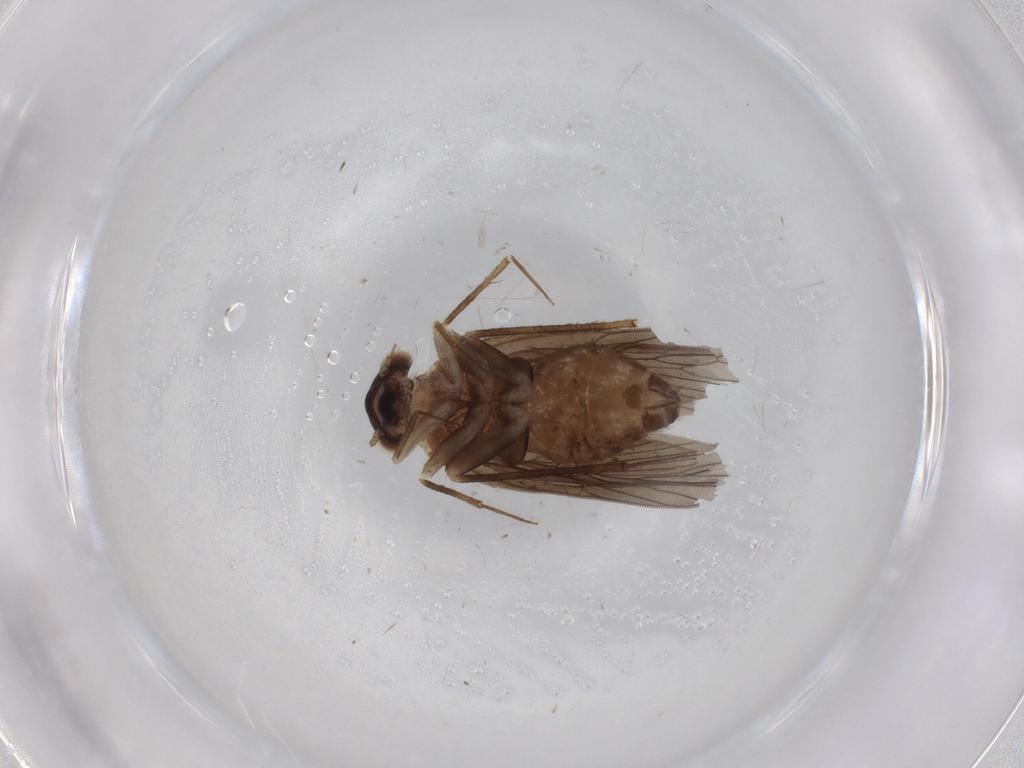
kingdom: Animalia
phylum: Arthropoda
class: Insecta
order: Psocodea
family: Lepidopsocidae
